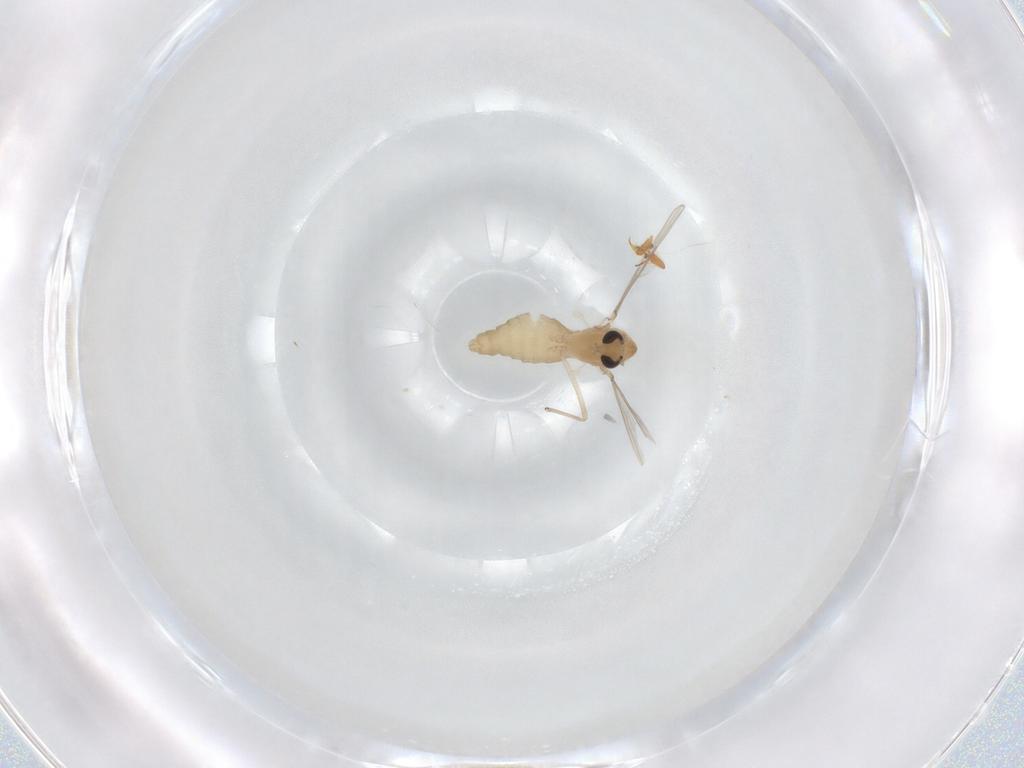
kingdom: Animalia
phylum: Arthropoda
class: Insecta
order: Diptera
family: Chironomidae
